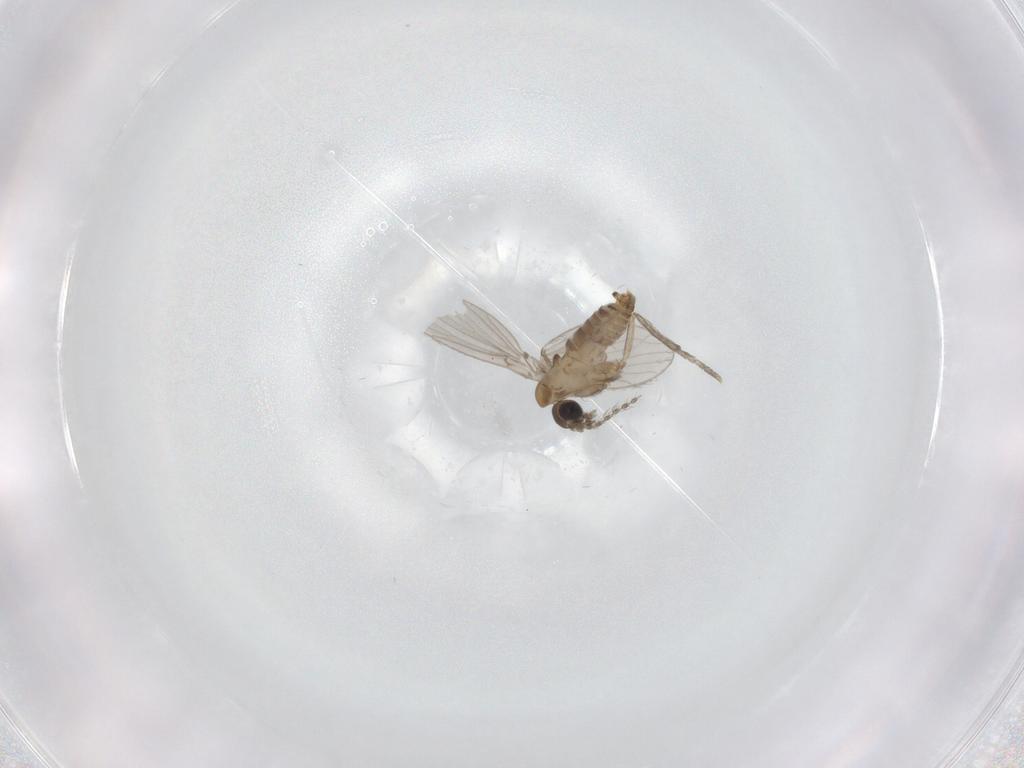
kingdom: Animalia
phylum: Arthropoda
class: Insecta
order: Diptera
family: Psychodidae
